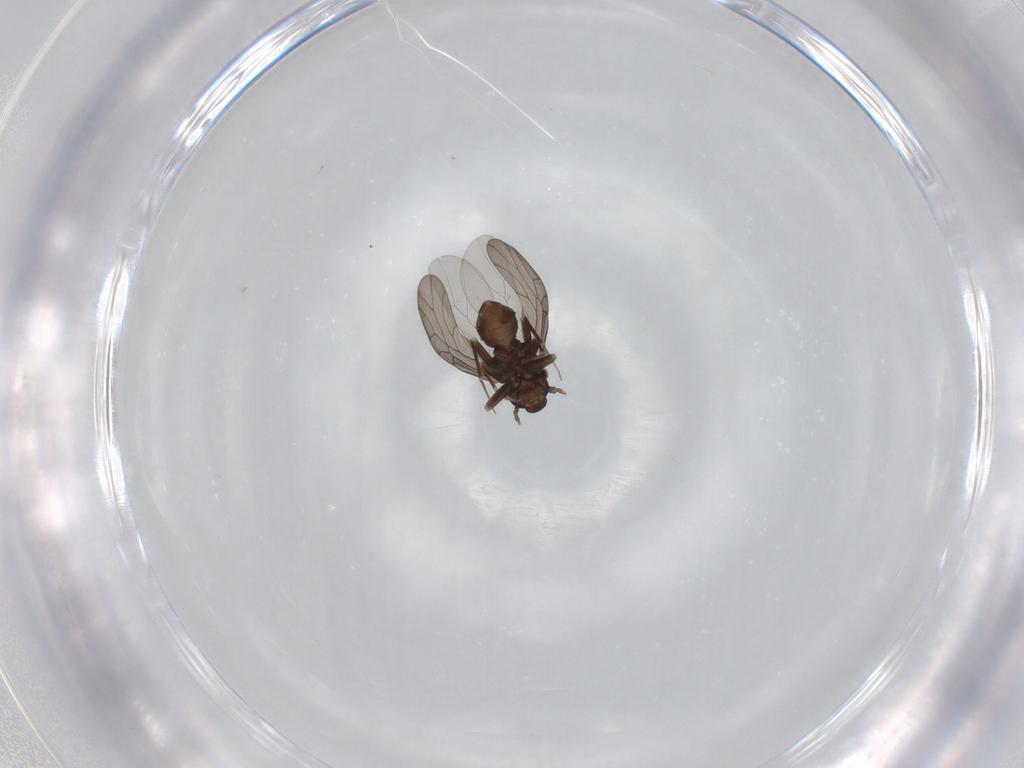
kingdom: Animalia
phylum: Arthropoda
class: Insecta
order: Psocodea
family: Lepidopsocidae
